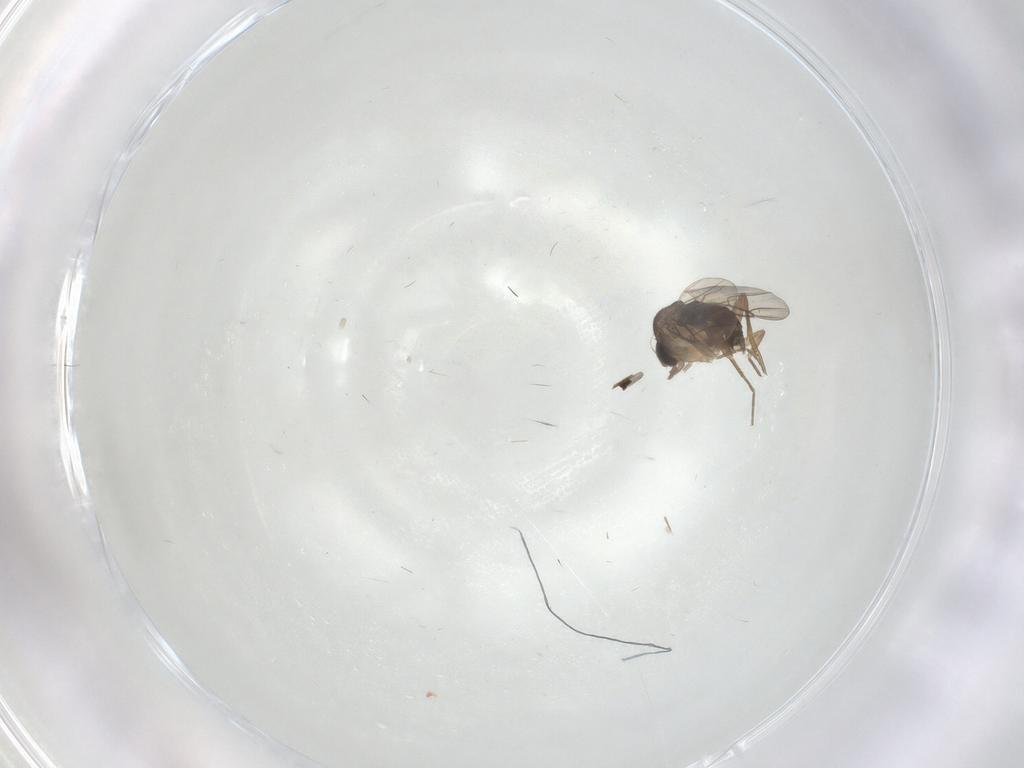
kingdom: Animalia
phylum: Arthropoda
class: Insecta
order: Diptera
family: Phoridae
